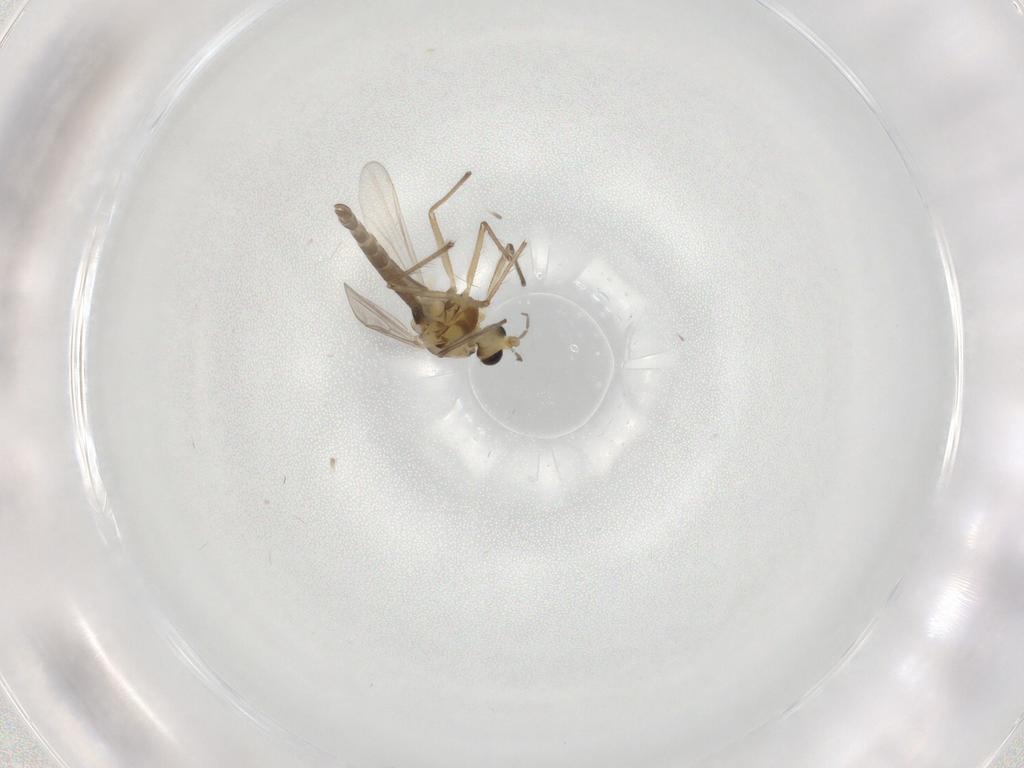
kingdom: Animalia
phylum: Arthropoda
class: Insecta
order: Diptera
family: Chironomidae
